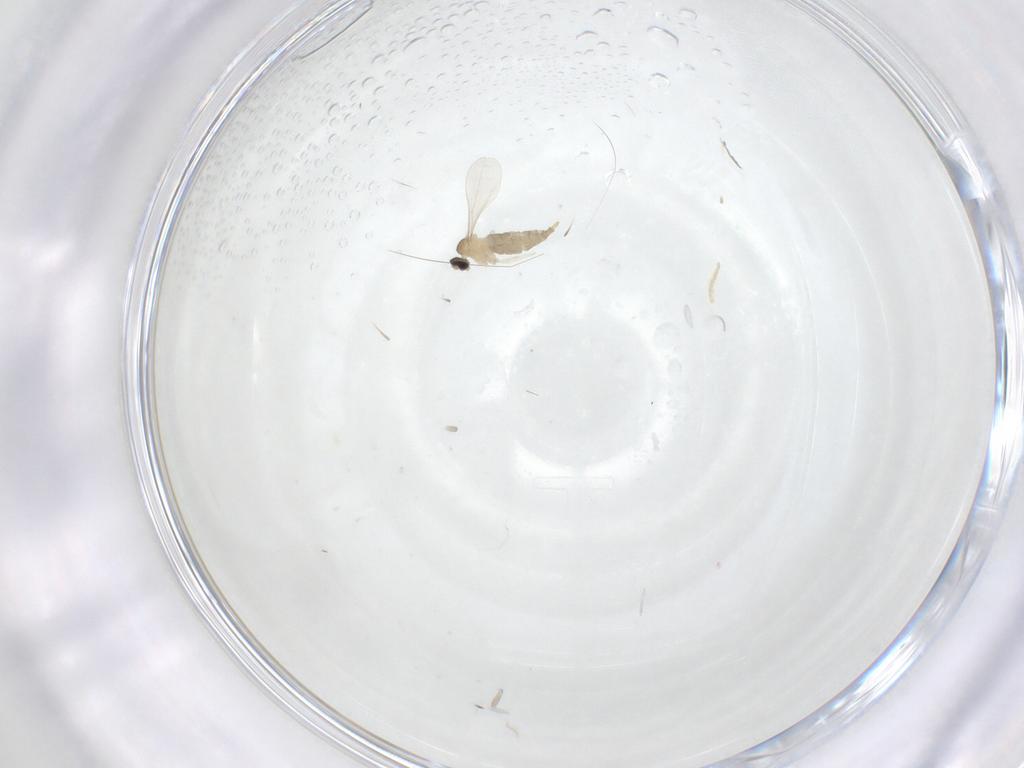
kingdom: Animalia
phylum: Arthropoda
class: Insecta
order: Diptera
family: Cecidomyiidae
